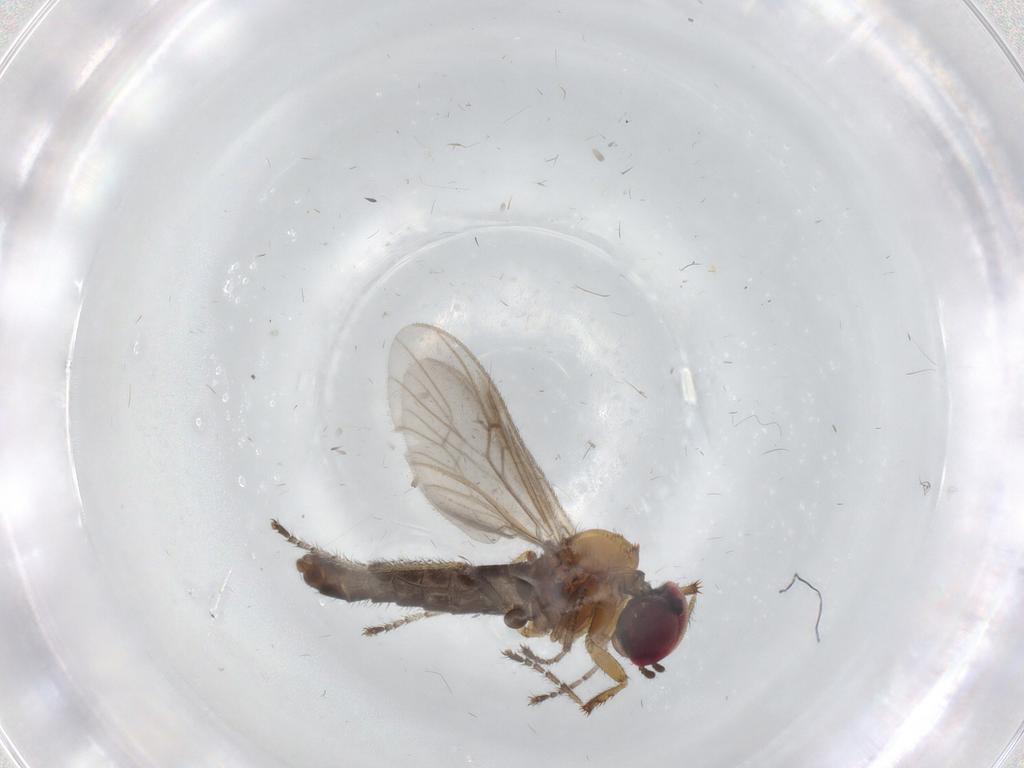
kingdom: Animalia
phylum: Arthropoda
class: Insecta
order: Diptera
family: Bibionidae
